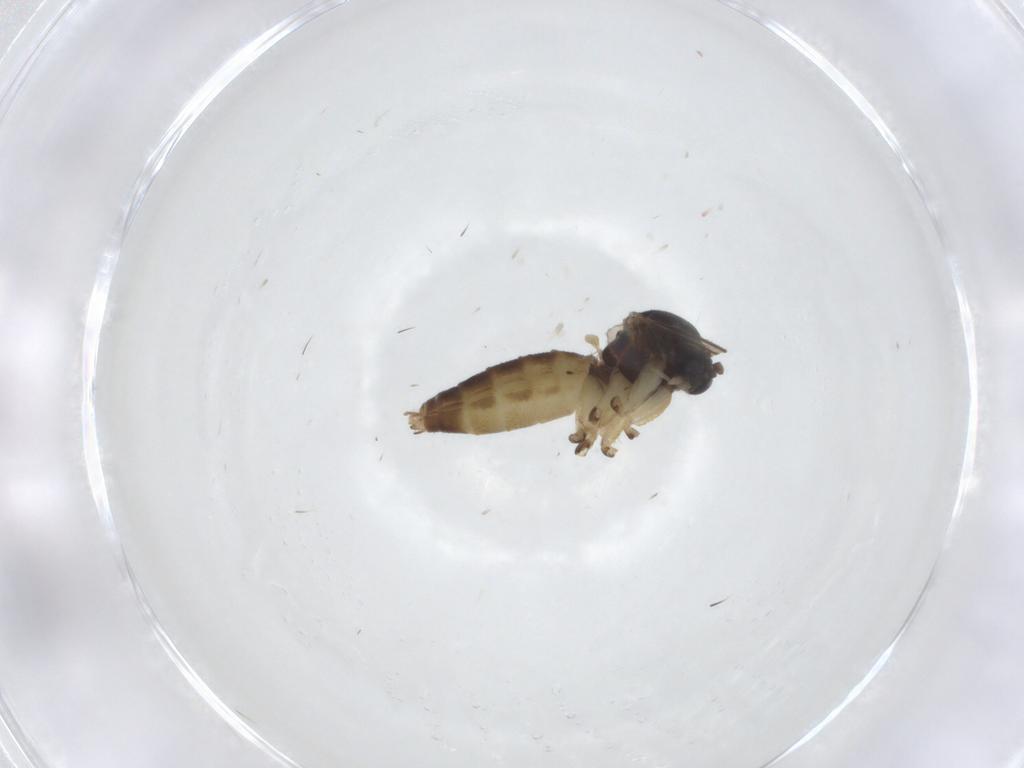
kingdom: Animalia
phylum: Arthropoda
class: Insecta
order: Diptera
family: Mycetophilidae
